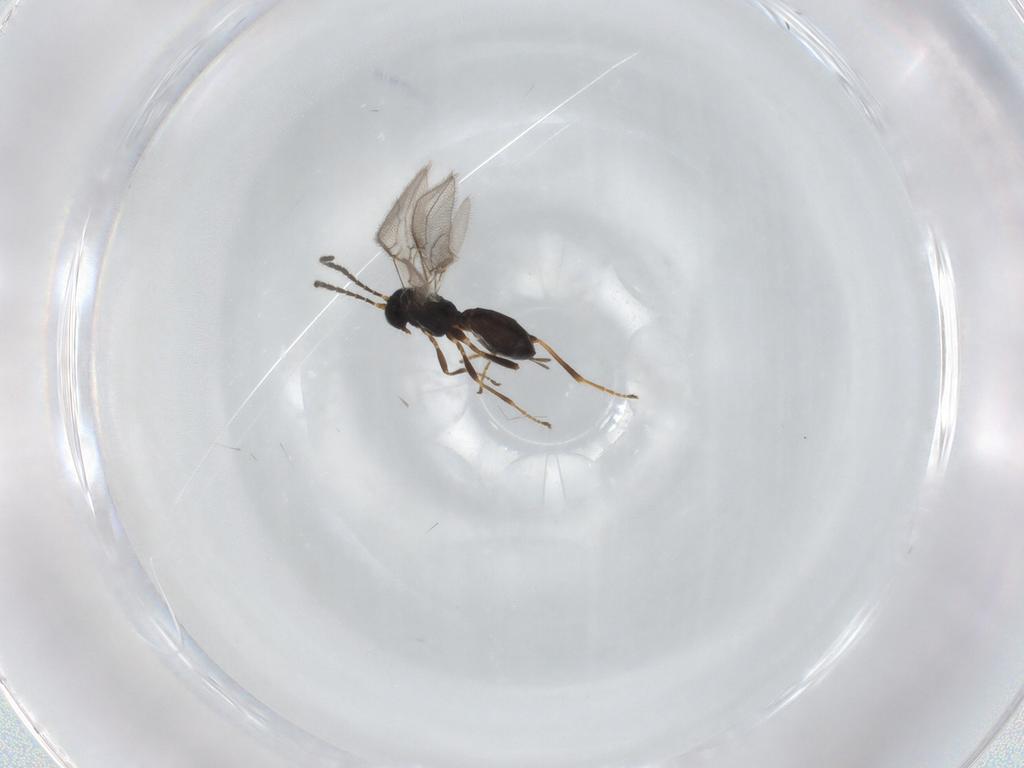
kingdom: Animalia
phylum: Arthropoda
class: Insecta
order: Hymenoptera
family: Braconidae
